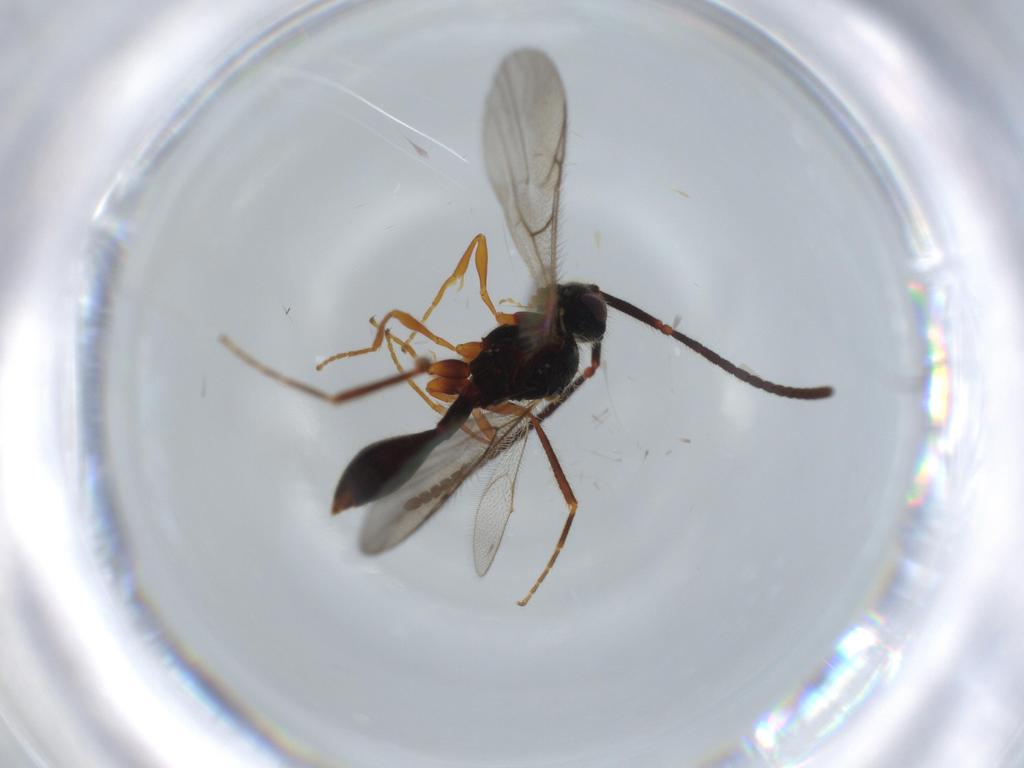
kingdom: Animalia
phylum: Arthropoda
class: Insecta
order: Hymenoptera
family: Diapriidae
